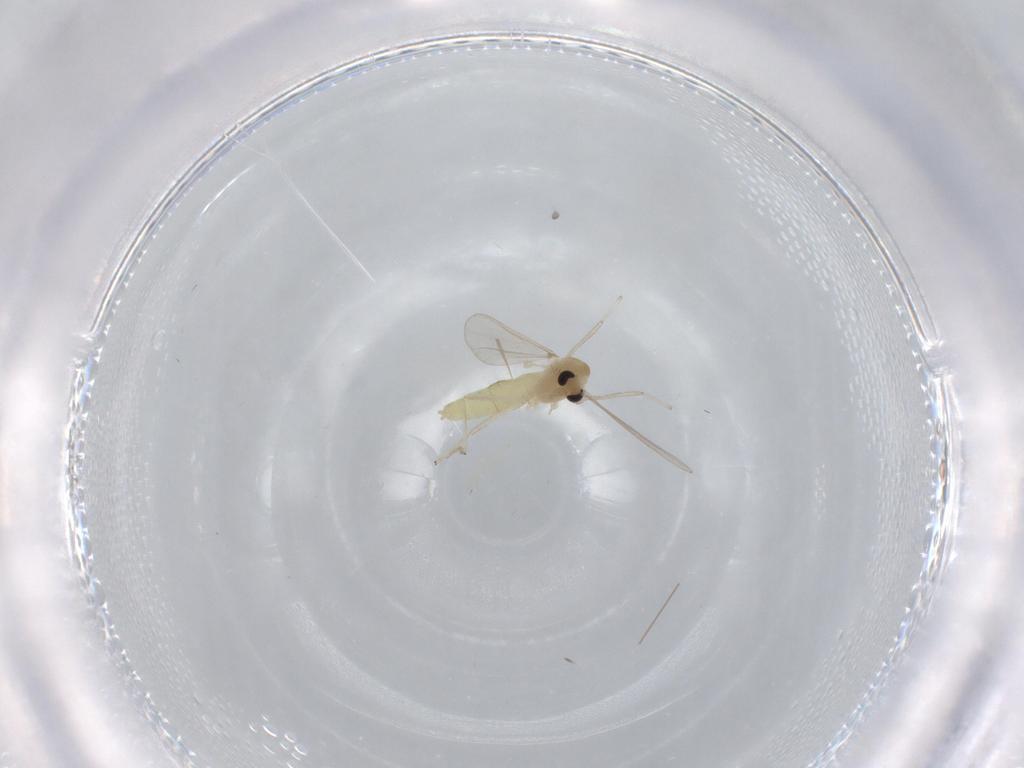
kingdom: Animalia
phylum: Arthropoda
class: Insecta
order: Diptera
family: Chironomidae
